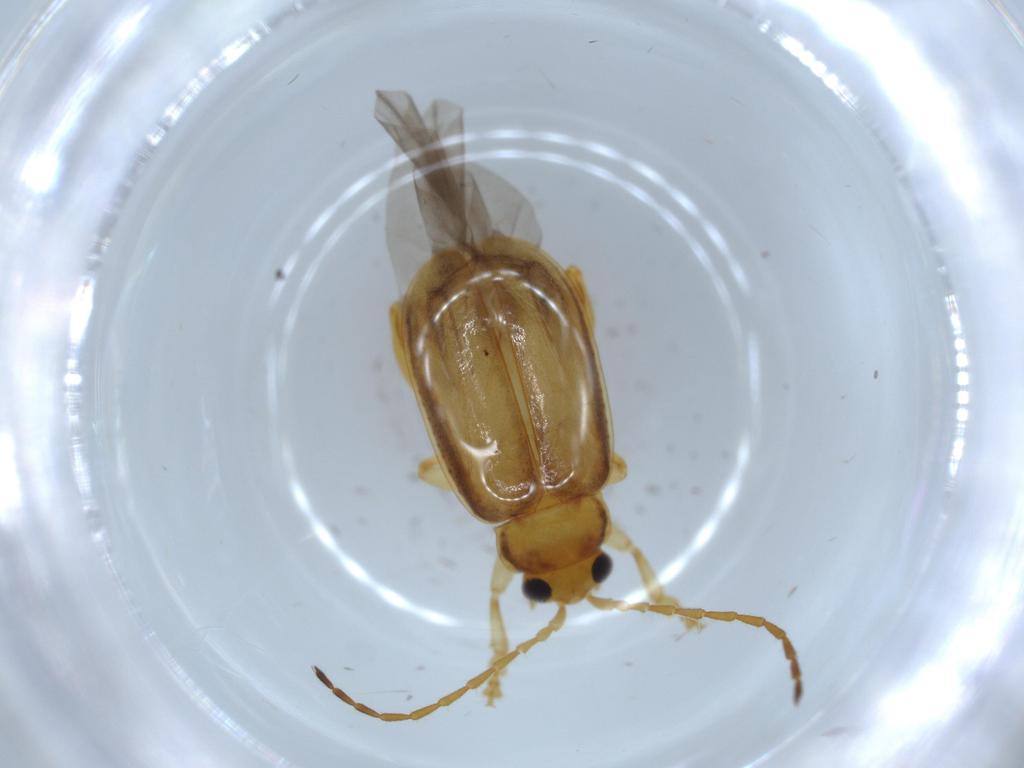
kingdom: Animalia
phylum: Arthropoda
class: Insecta
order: Coleoptera
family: Chrysomelidae
